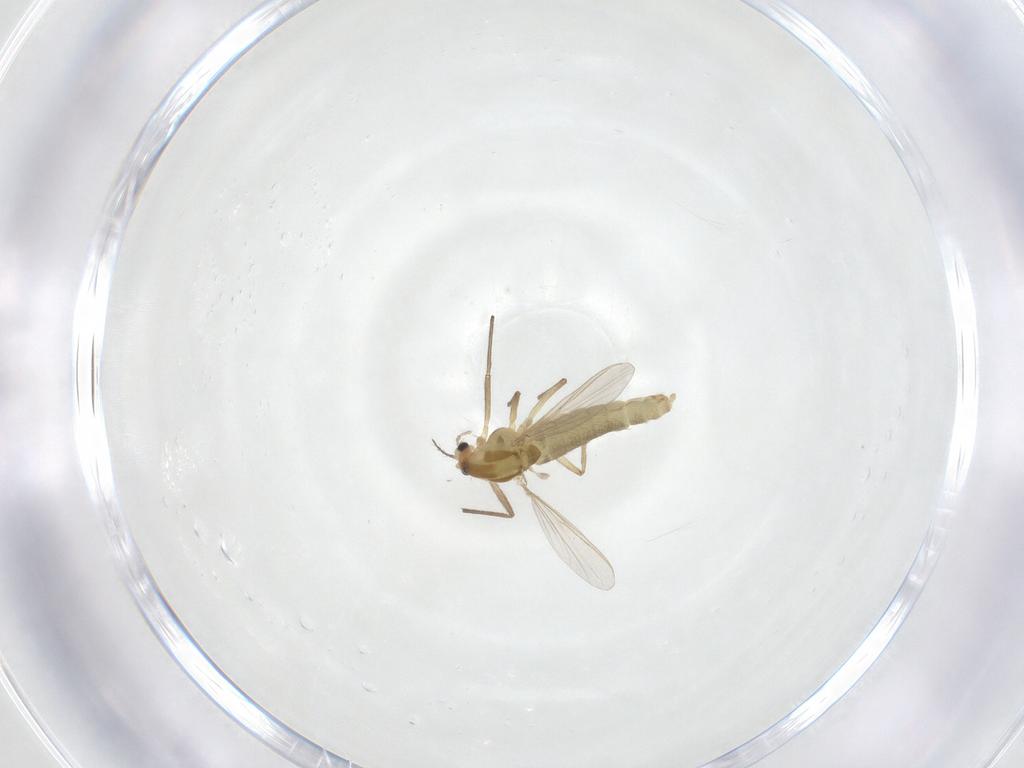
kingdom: Animalia
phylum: Arthropoda
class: Insecta
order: Diptera
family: Chironomidae
